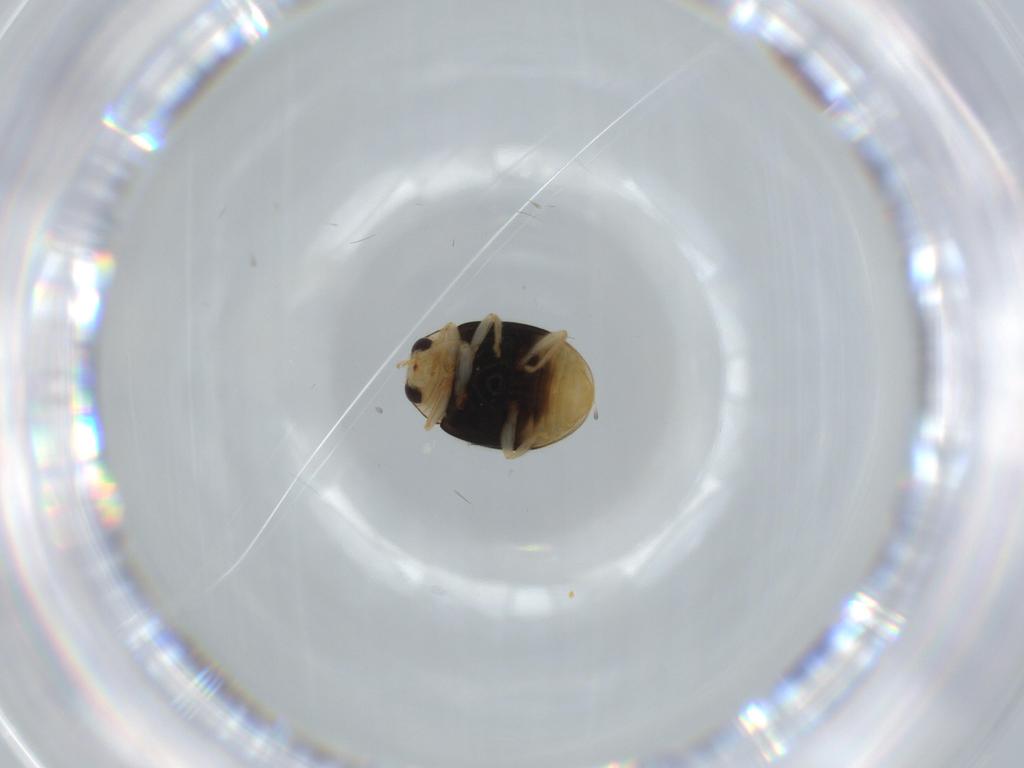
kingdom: Animalia
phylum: Arthropoda
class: Insecta
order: Coleoptera
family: Coccinellidae
